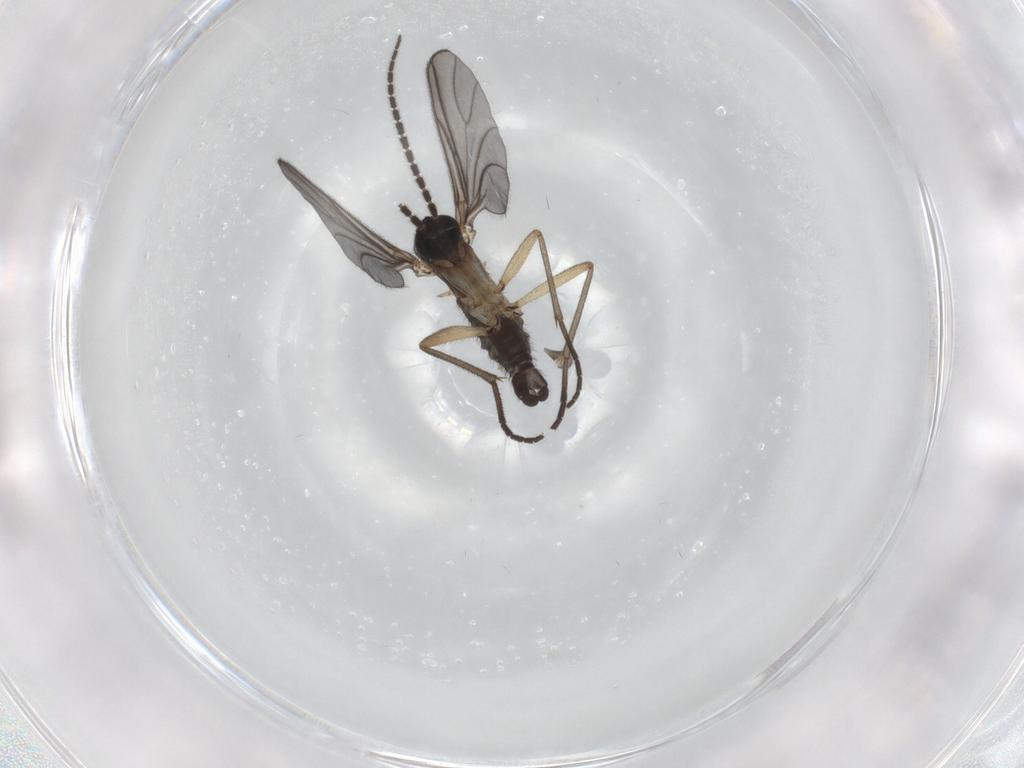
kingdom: Animalia
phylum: Arthropoda
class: Insecta
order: Diptera
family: Sciaridae
